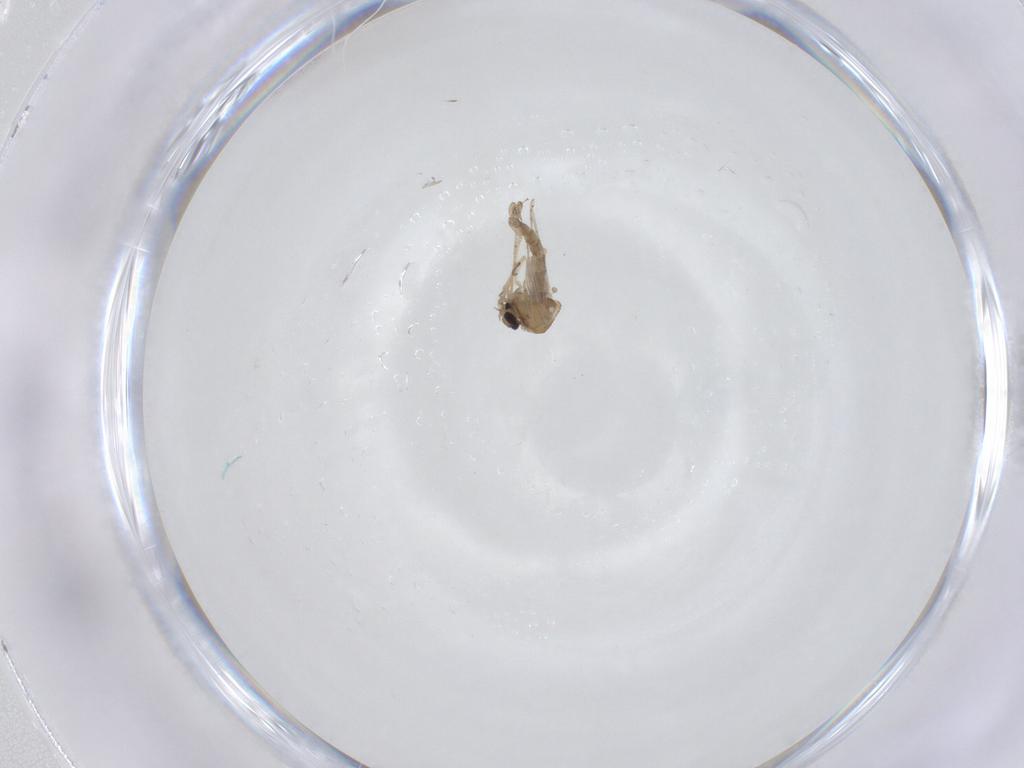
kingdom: Animalia
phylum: Arthropoda
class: Insecta
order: Diptera
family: Ceratopogonidae
